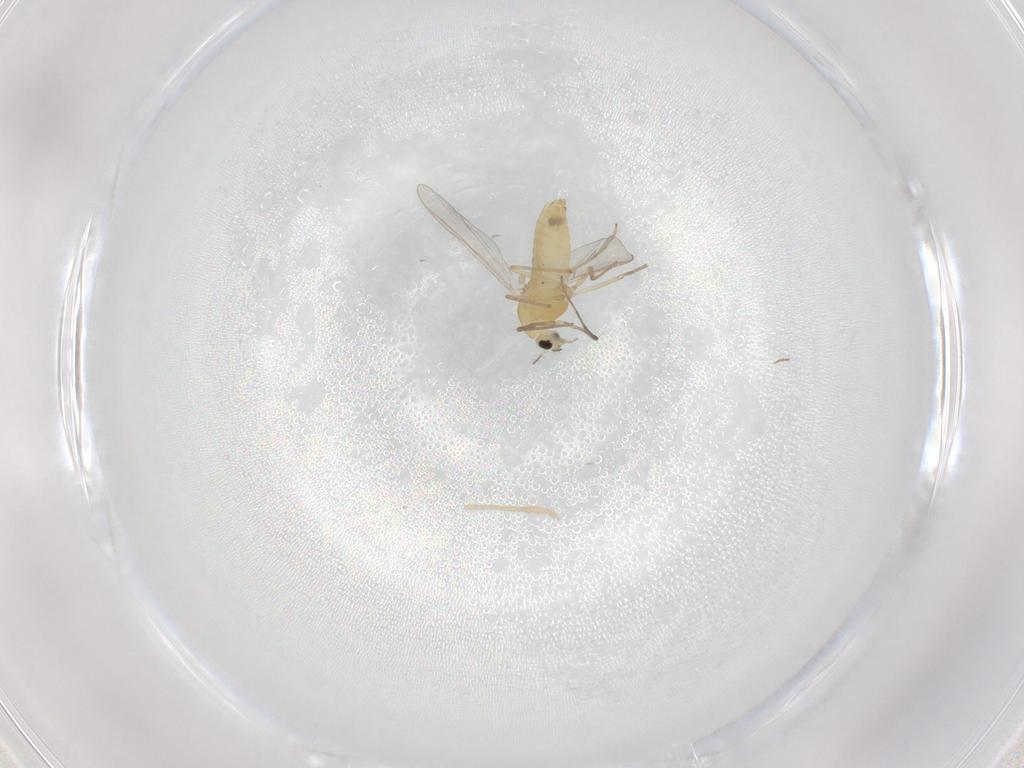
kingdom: Animalia
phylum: Arthropoda
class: Insecta
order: Diptera
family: Chironomidae
